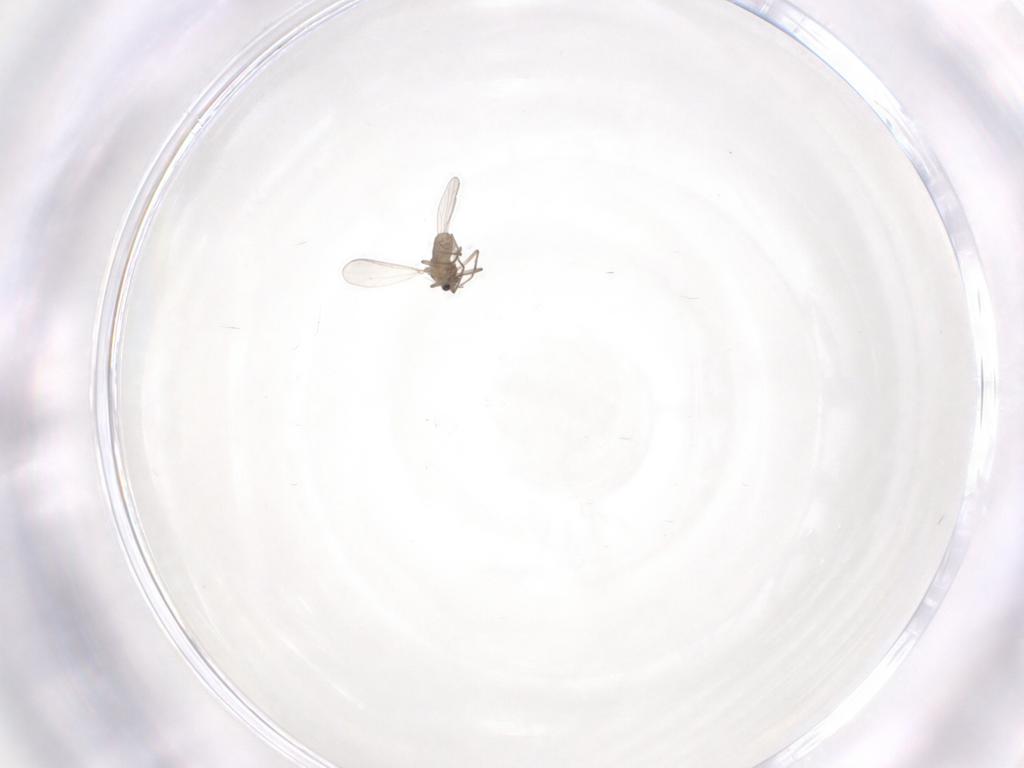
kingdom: Animalia
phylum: Arthropoda
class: Insecta
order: Diptera
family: Chironomidae
